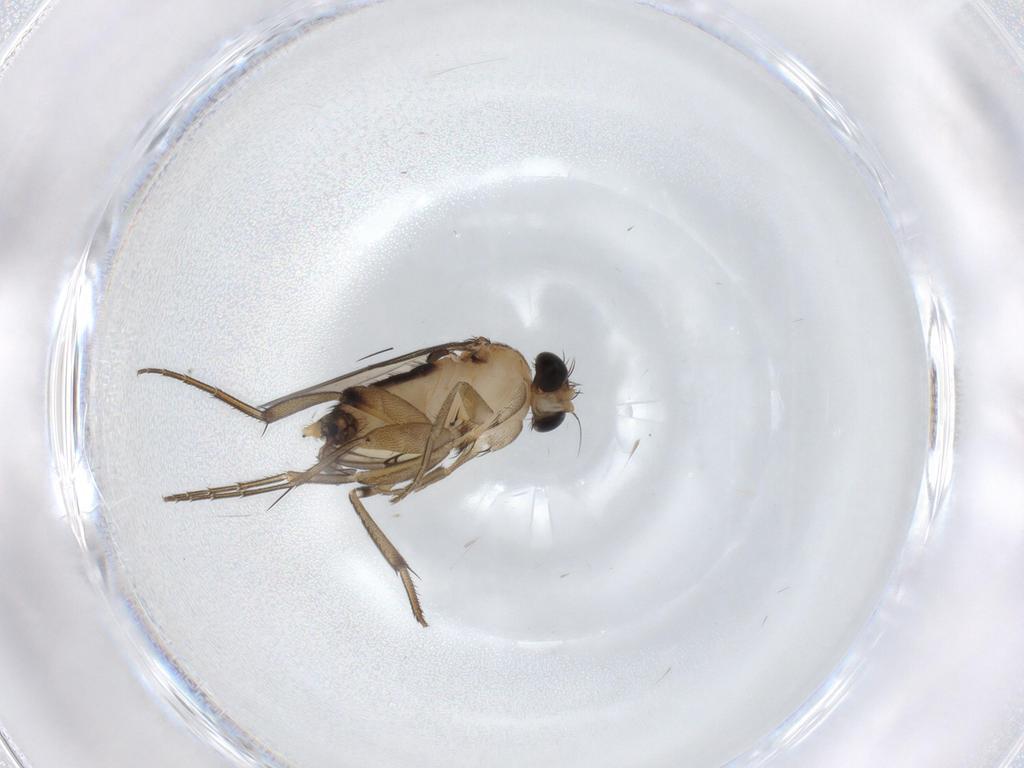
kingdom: Animalia
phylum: Arthropoda
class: Insecta
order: Diptera
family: Phoridae
